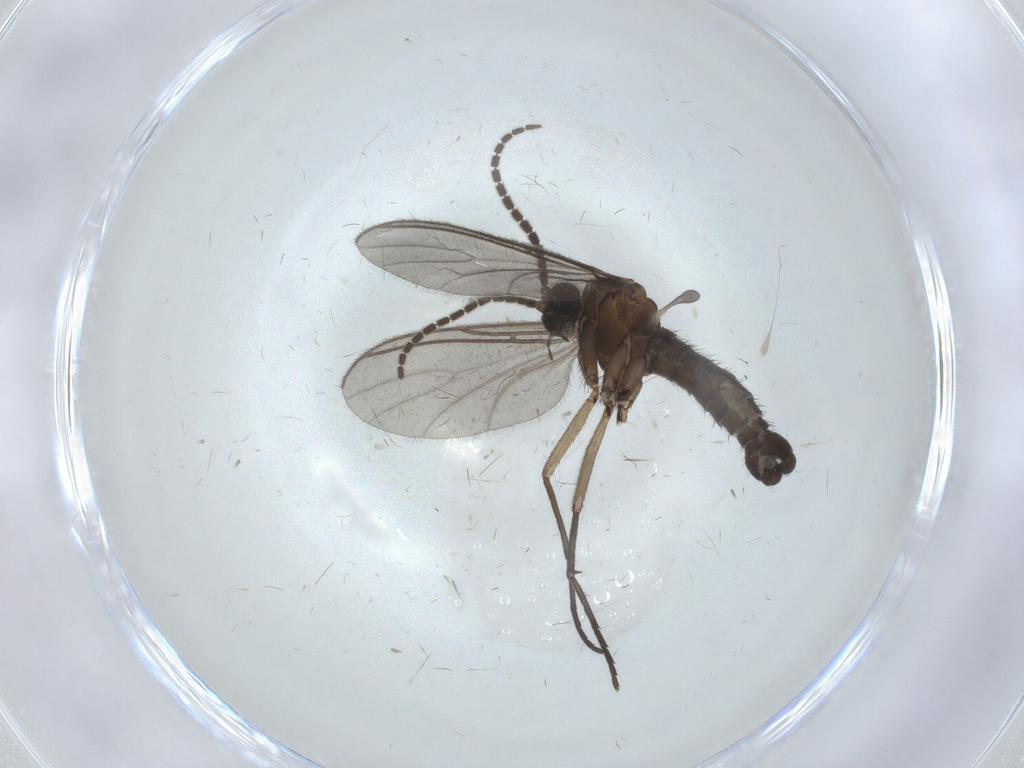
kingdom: Animalia
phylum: Arthropoda
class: Insecta
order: Diptera
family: Sciaridae
